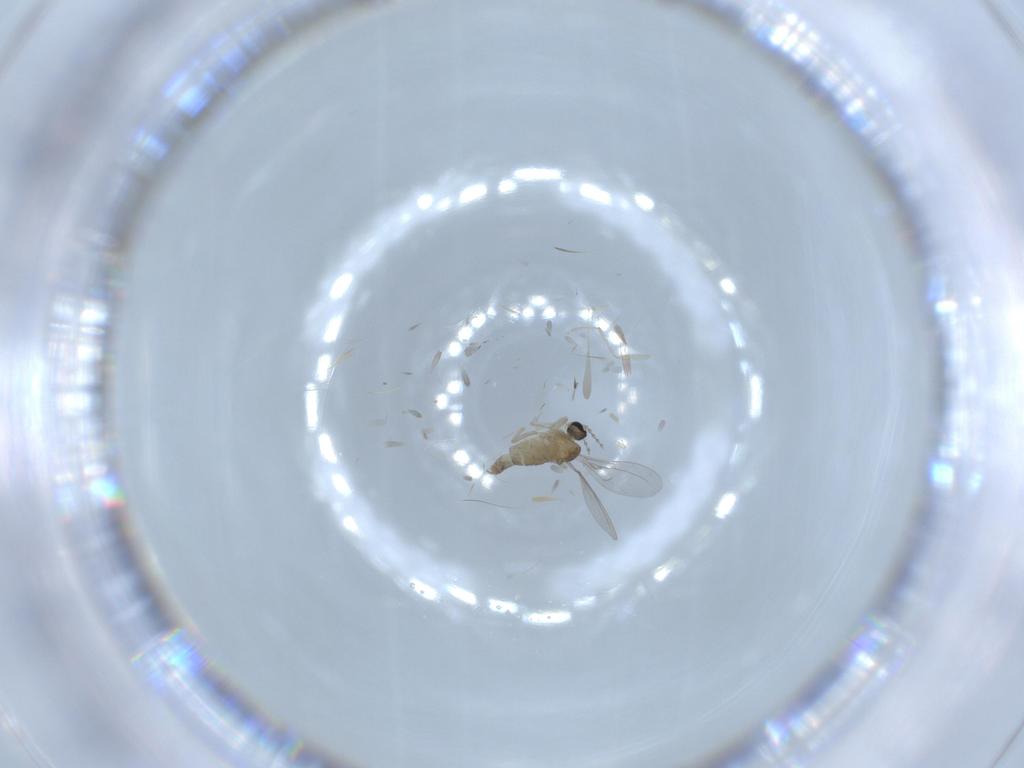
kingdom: Animalia
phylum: Arthropoda
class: Insecta
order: Diptera
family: Cecidomyiidae
